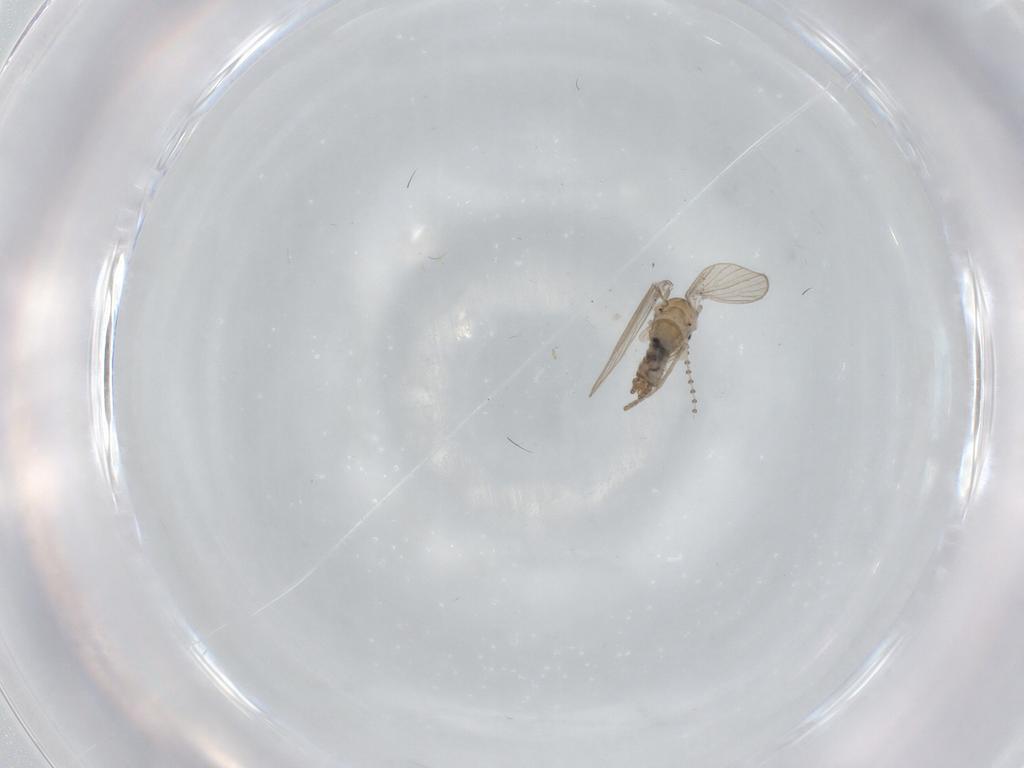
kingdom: Animalia
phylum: Arthropoda
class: Insecta
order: Diptera
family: Psychodidae
